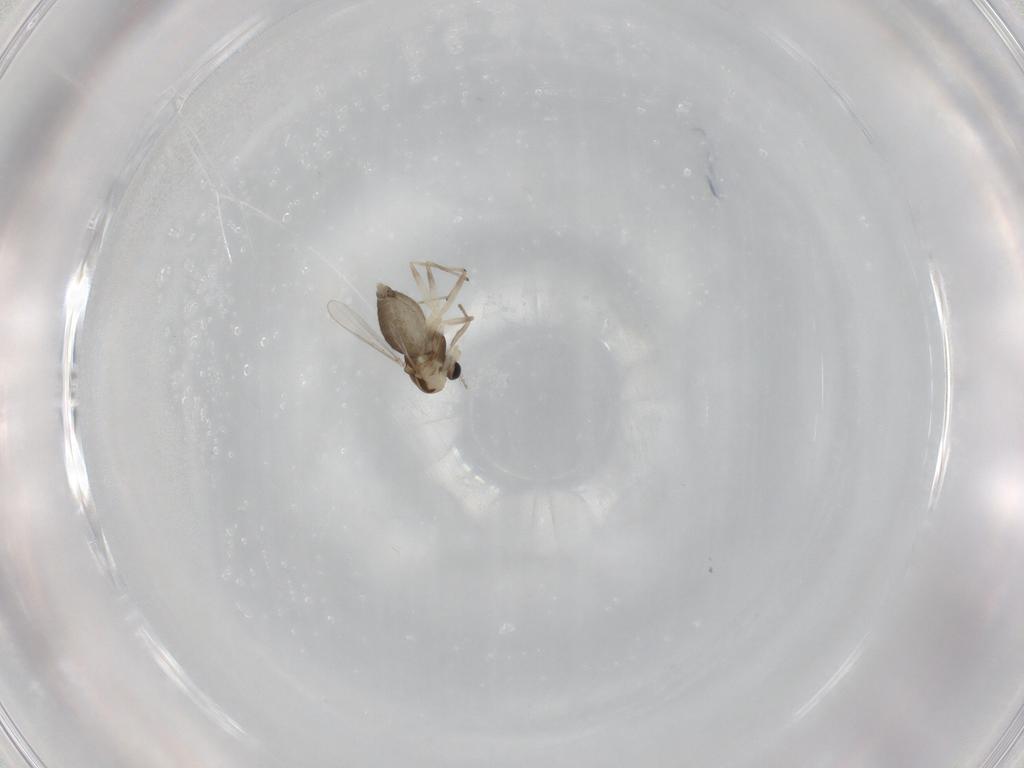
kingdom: Animalia
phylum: Arthropoda
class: Insecta
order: Diptera
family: Chironomidae
